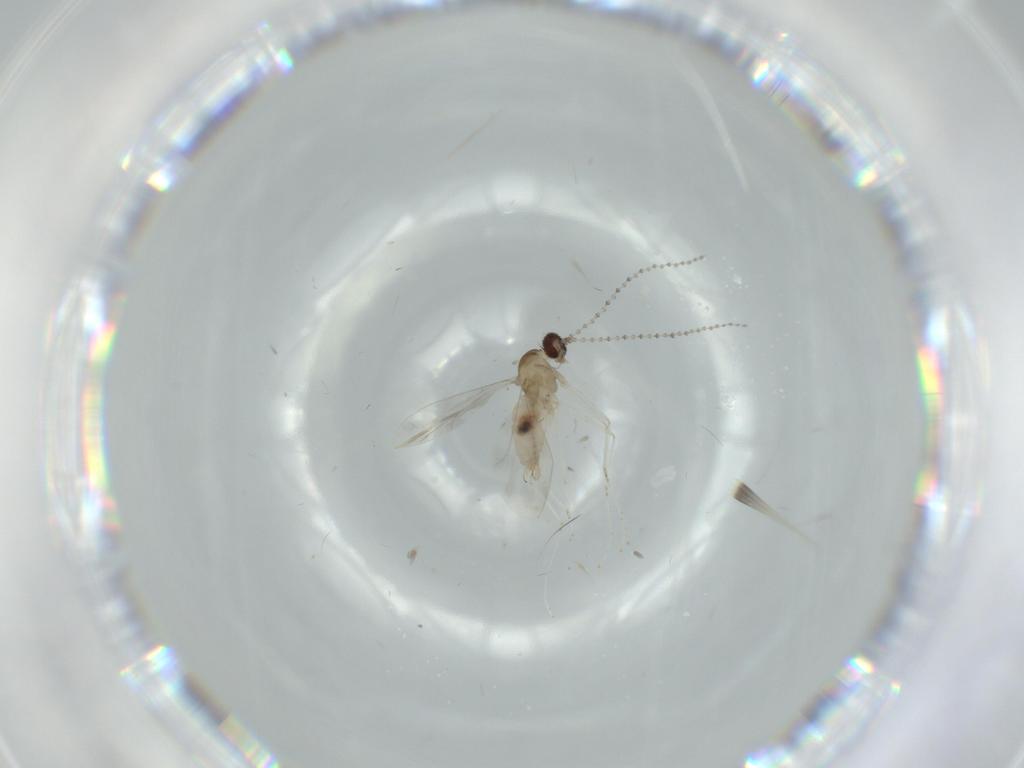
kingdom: Animalia
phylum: Arthropoda
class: Insecta
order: Diptera
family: Cecidomyiidae
